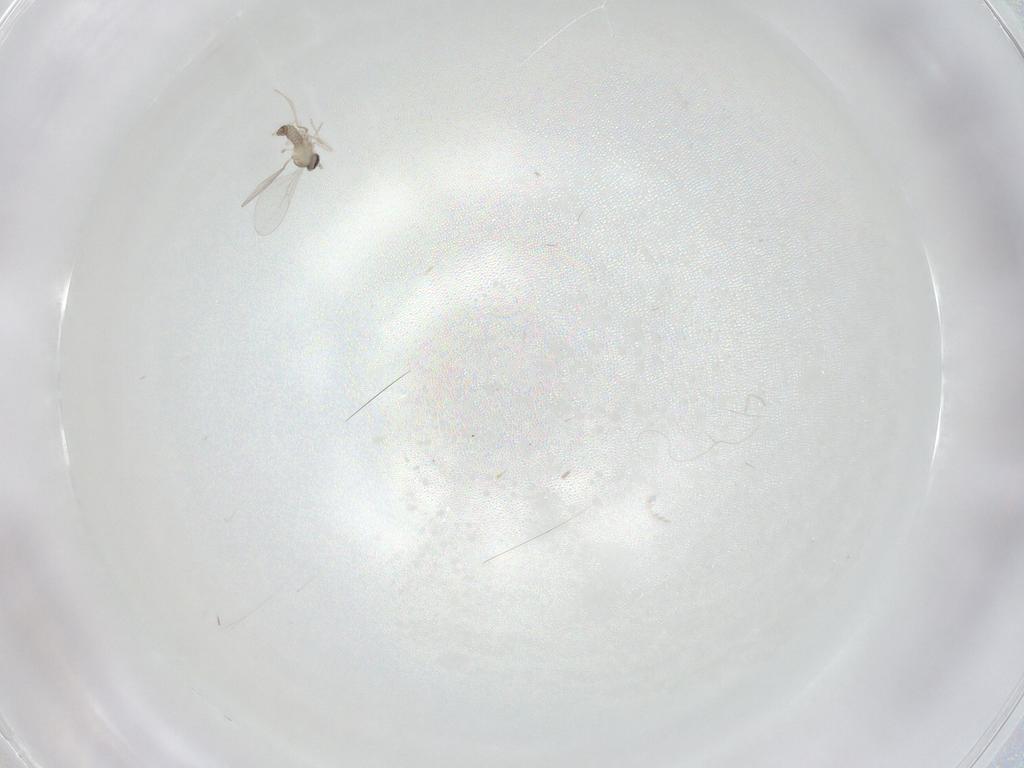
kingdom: Animalia
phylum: Arthropoda
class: Insecta
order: Diptera
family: Cecidomyiidae
